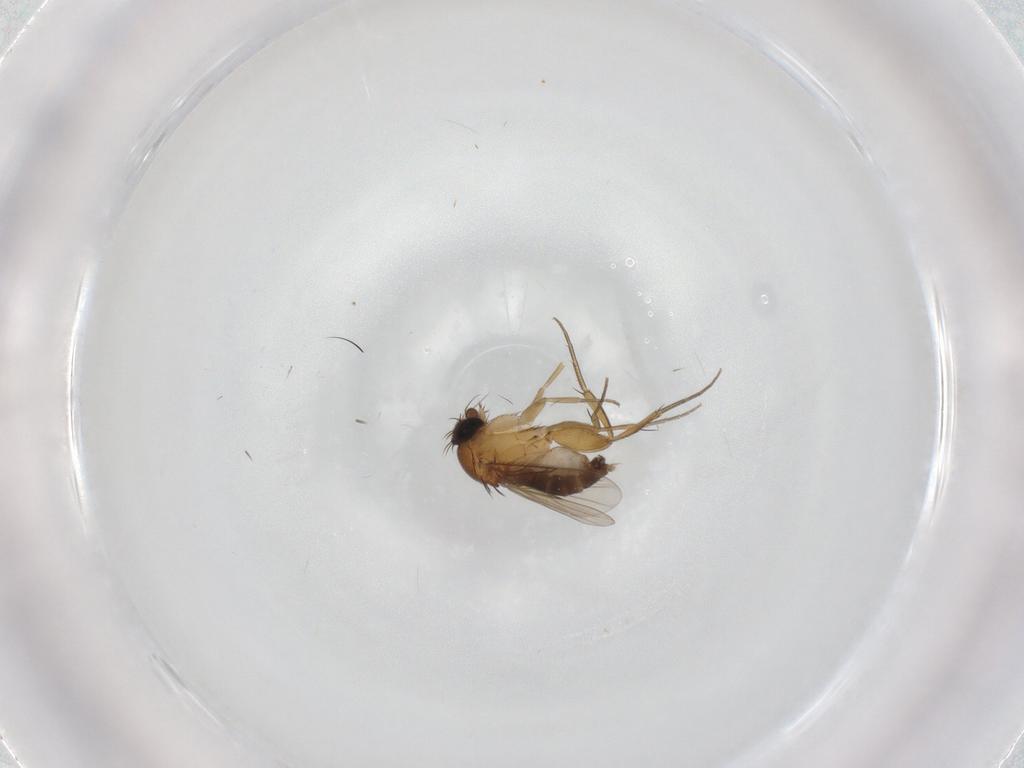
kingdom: Animalia
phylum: Arthropoda
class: Insecta
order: Diptera
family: Phoridae
